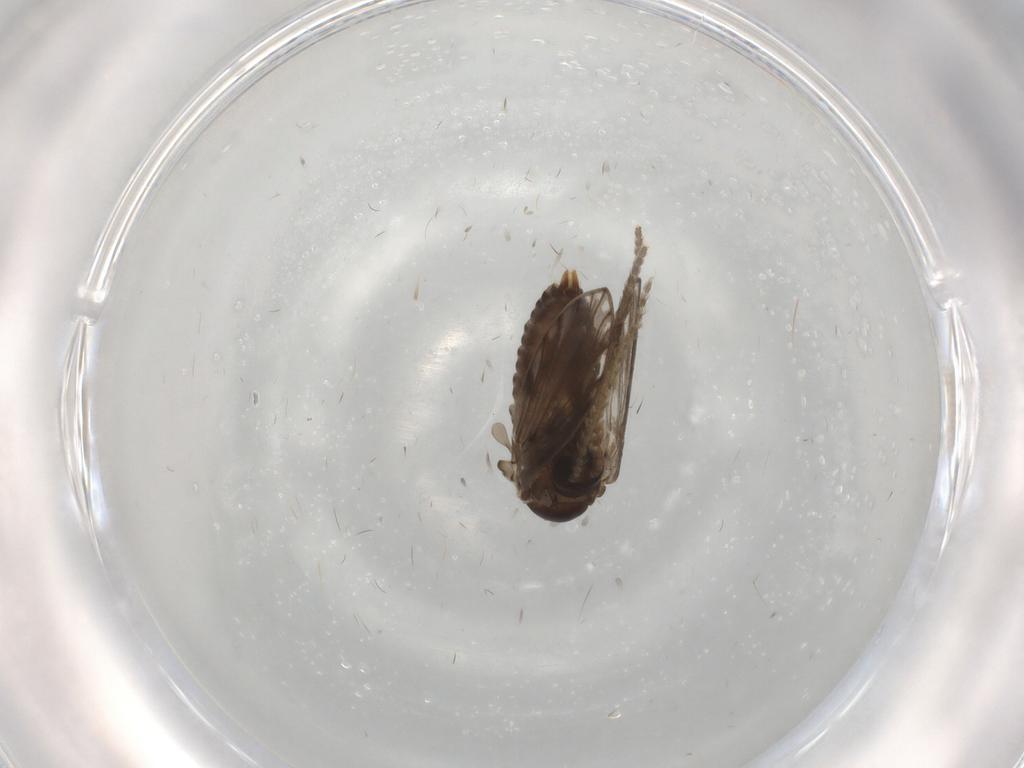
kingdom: Animalia
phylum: Arthropoda
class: Insecta
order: Diptera
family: Psychodidae
